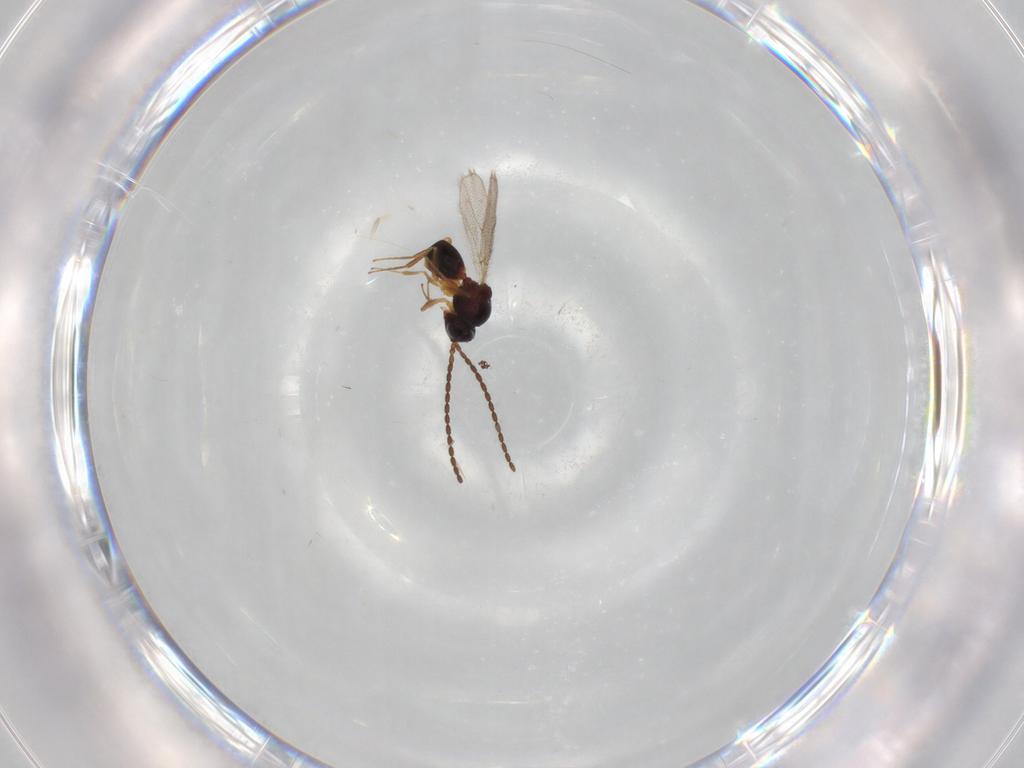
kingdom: Animalia
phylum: Arthropoda
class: Insecta
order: Hymenoptera
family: Figitidae
